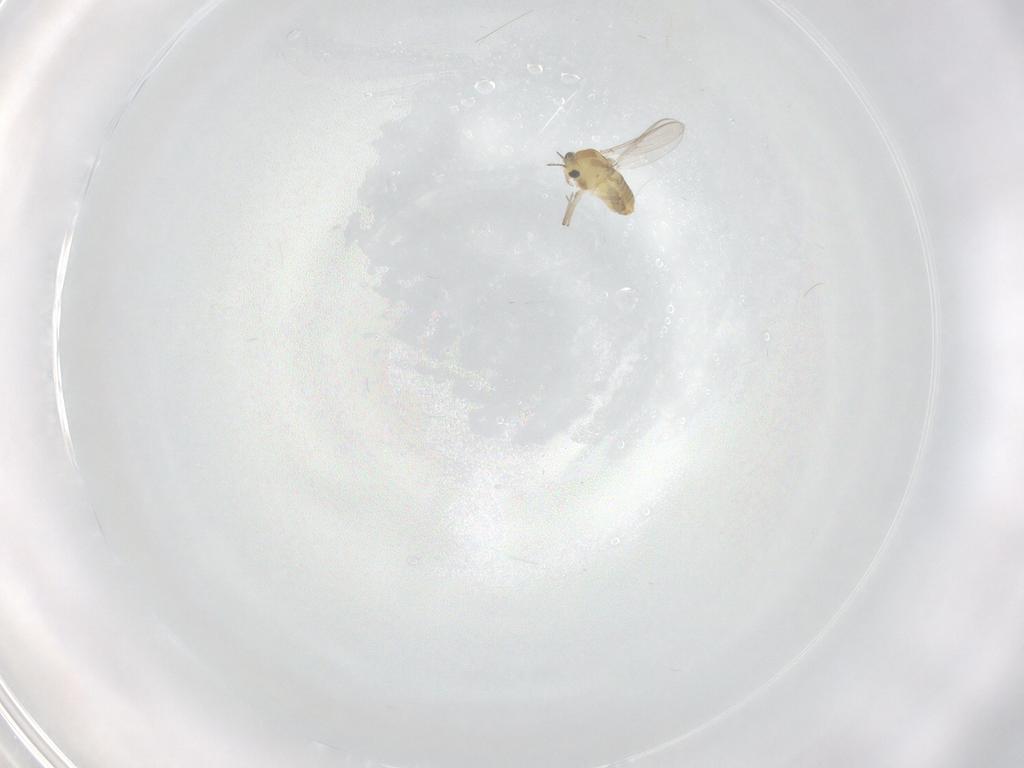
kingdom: Animalia
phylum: Arthropoda
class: Insecta
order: Diptera
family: Chironomidae
